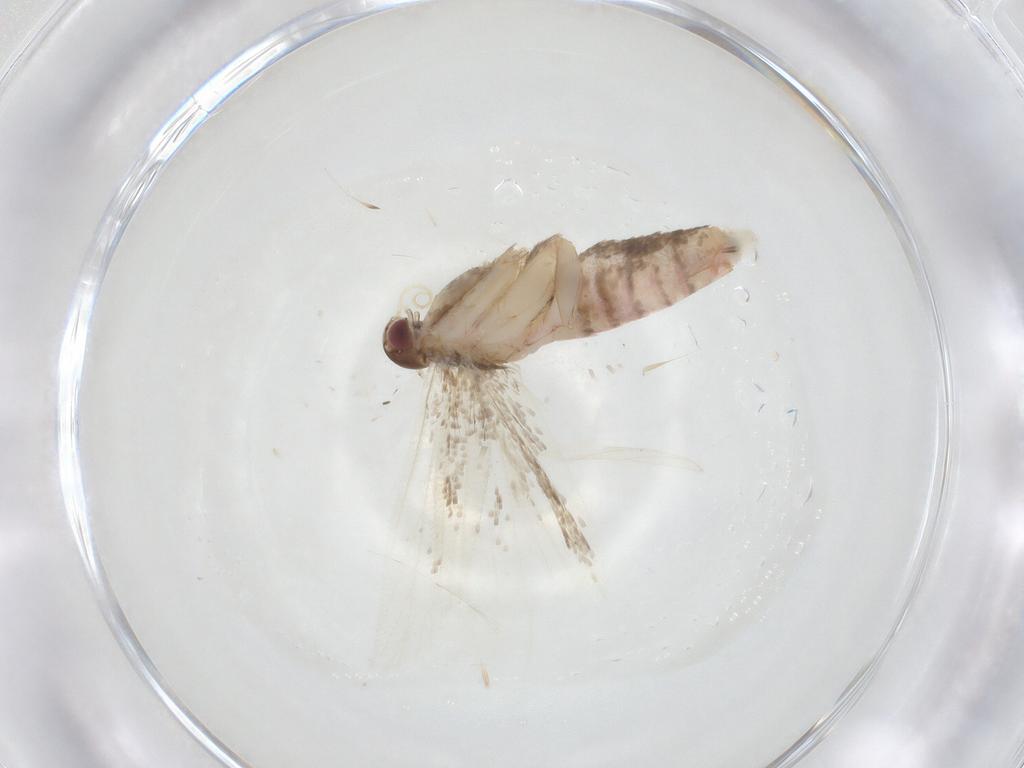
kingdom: Animalia
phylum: Arthropoda
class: Insecta
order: Lepidoptera
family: Gelechiidae
